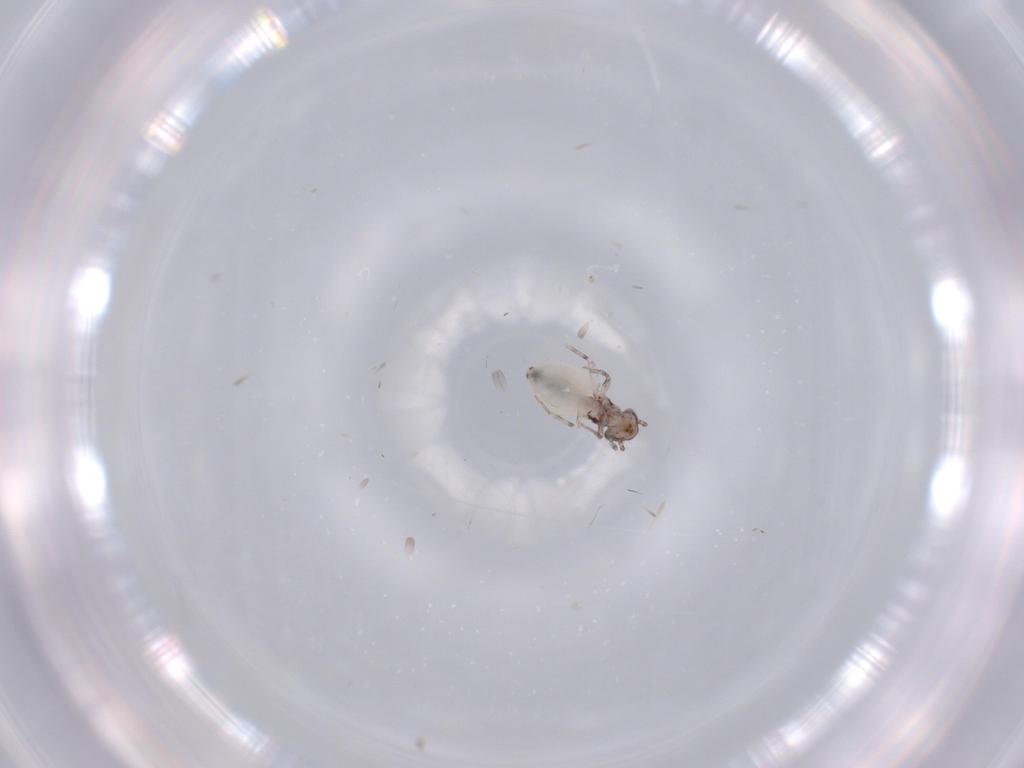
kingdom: Animalia
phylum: Arthropoda
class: Insecta
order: Psocodea
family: Lepidopsocidae
